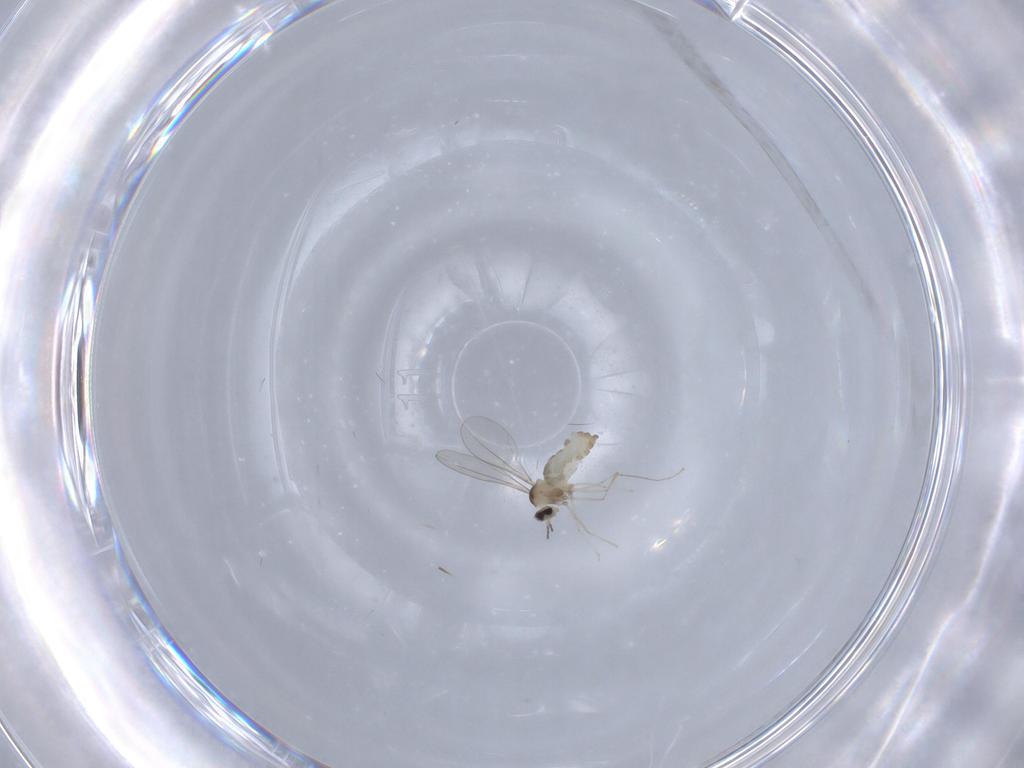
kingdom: Animalia
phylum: Arthropoda
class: Insecta
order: Diptera
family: Cecidomyiidae
